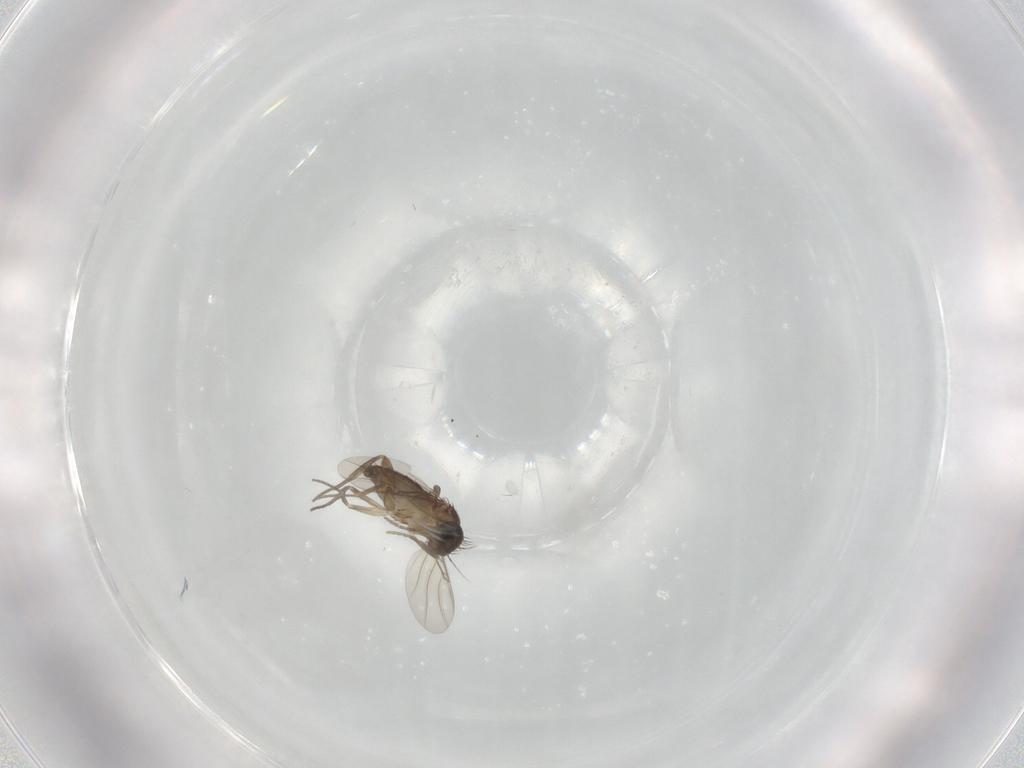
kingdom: Animalia
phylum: Arthropoda
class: Insecta
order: Diptera
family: Phoridae
